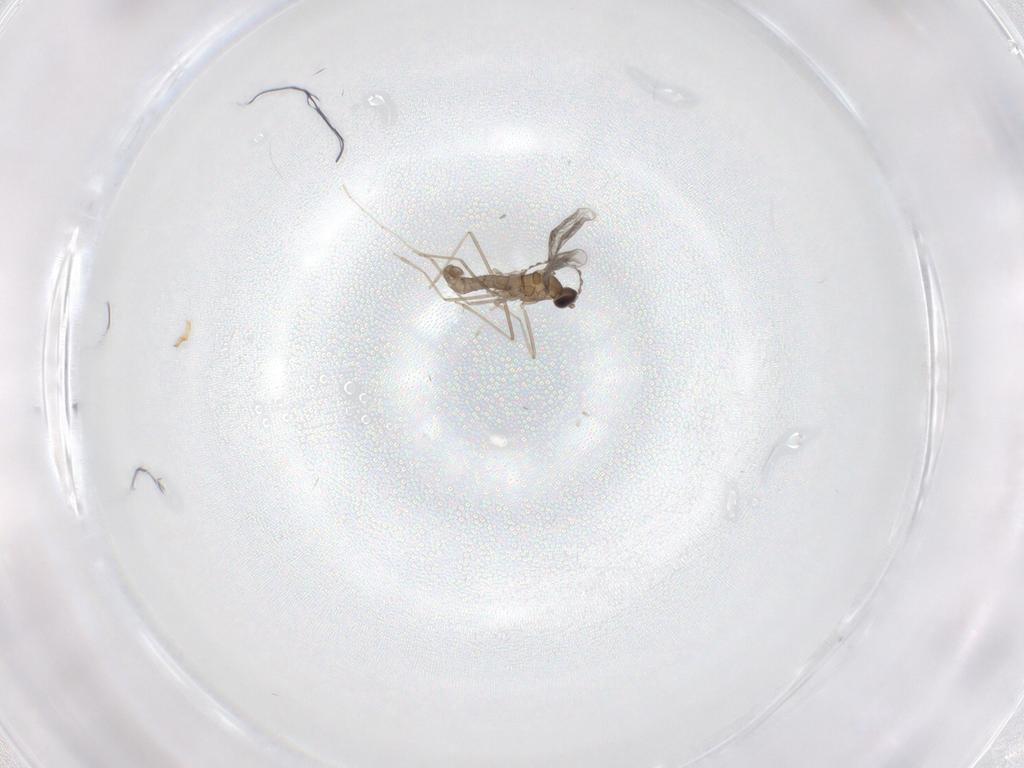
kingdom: Animalia
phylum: Arthropoda
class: Insecta
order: Diptera
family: Cecidomyiidae
